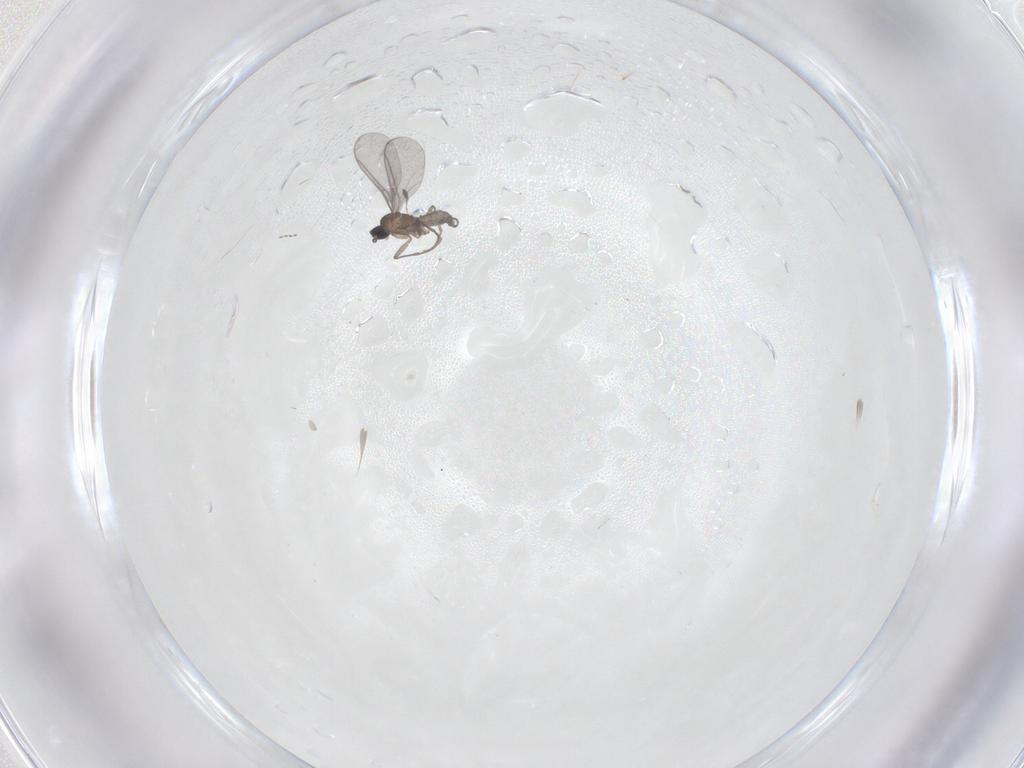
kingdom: Animalia
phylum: Arthropoda
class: Insecta
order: Diptera
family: Cecidomyiidae
